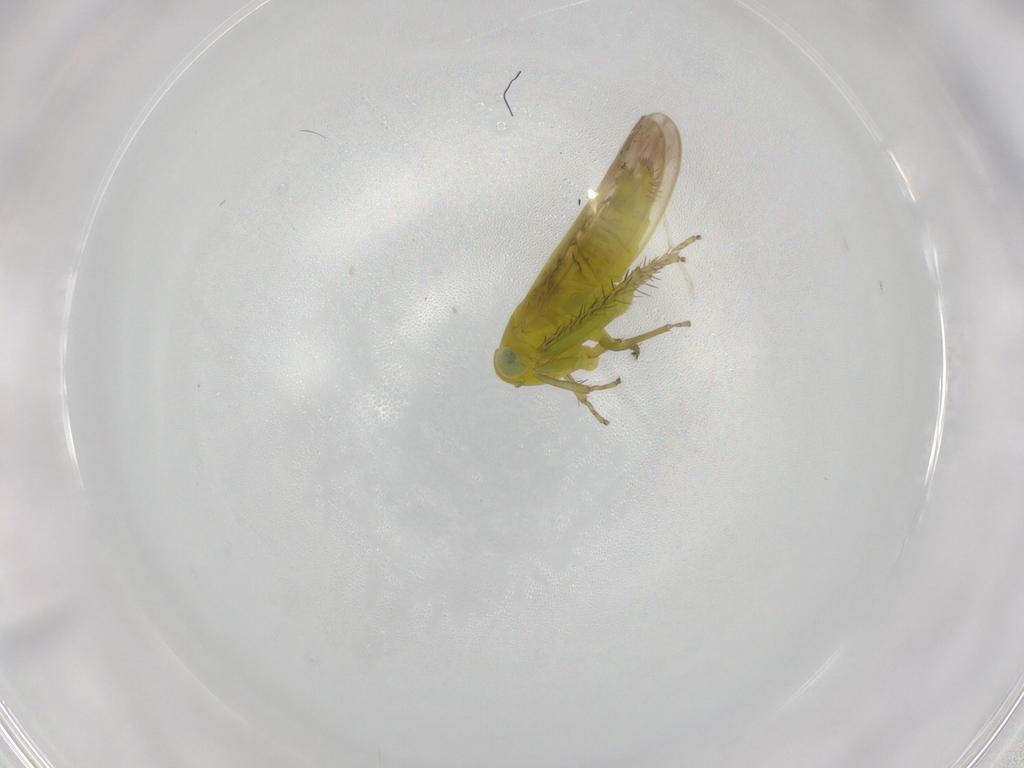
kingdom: Animalia
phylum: Arthropoda
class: Insecta
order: Hemiptera
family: Cicadellidae
